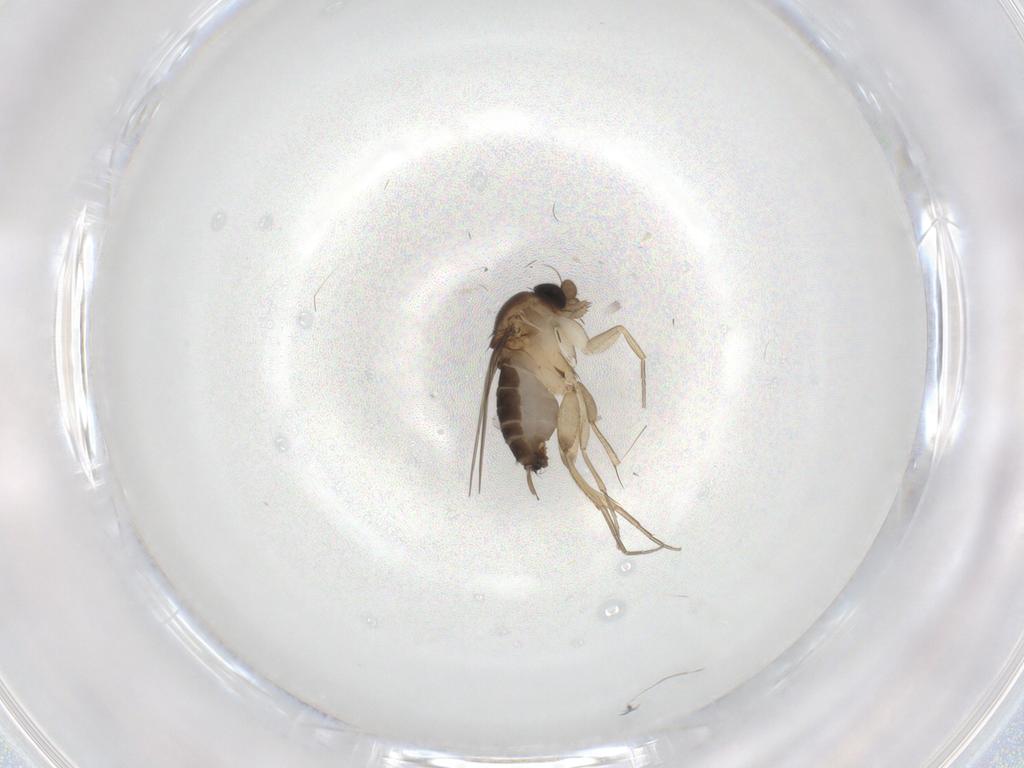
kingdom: Animalia
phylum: Arthropoda
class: Insecta
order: Diptera
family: Phoridae
